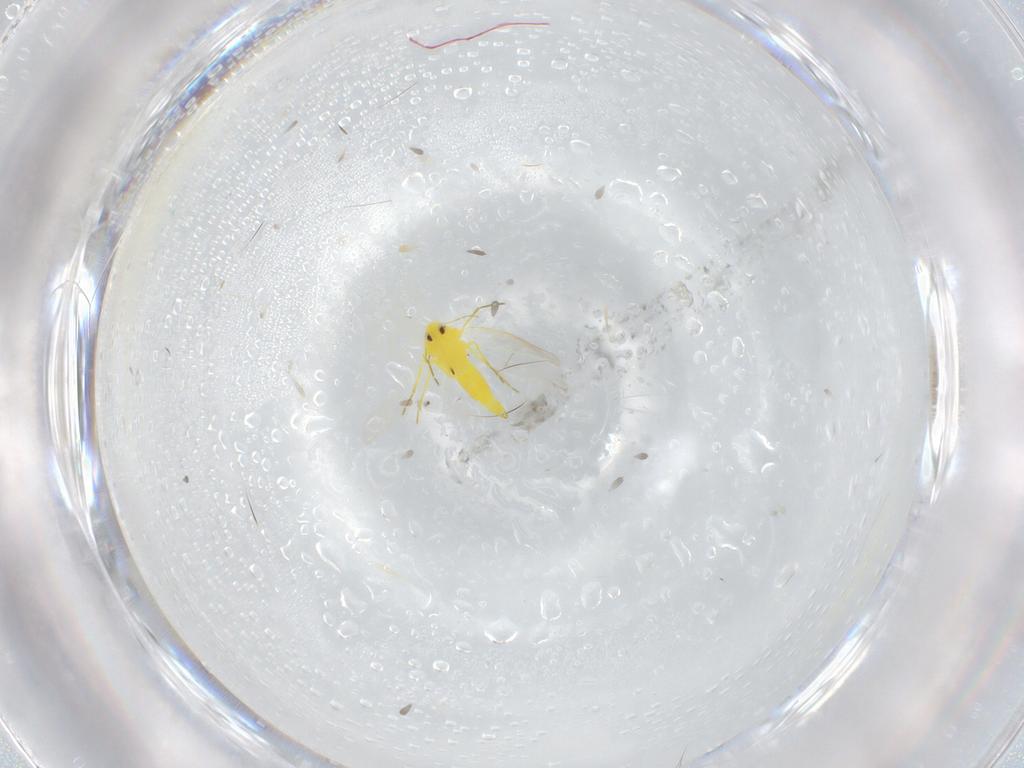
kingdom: Animalia
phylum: Arthropoda
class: Insecta
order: Hemiptera
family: Aleyrodidae
